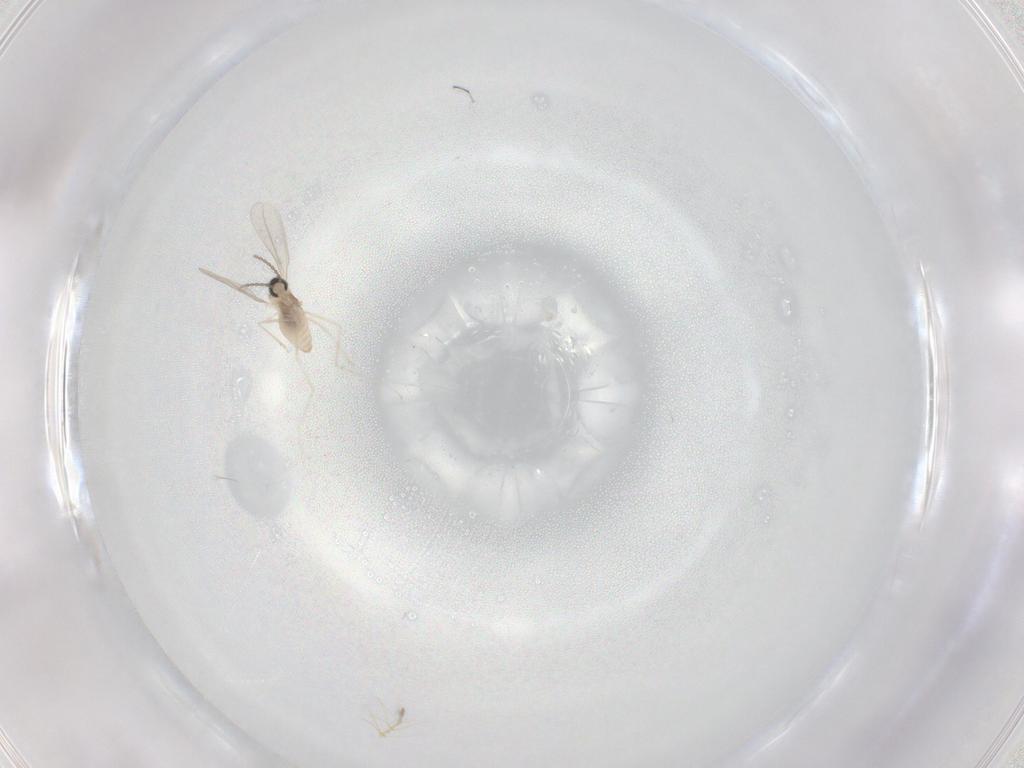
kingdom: Animalia
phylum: Arthropoda
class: Insecta
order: Diptera
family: Chironomidae
